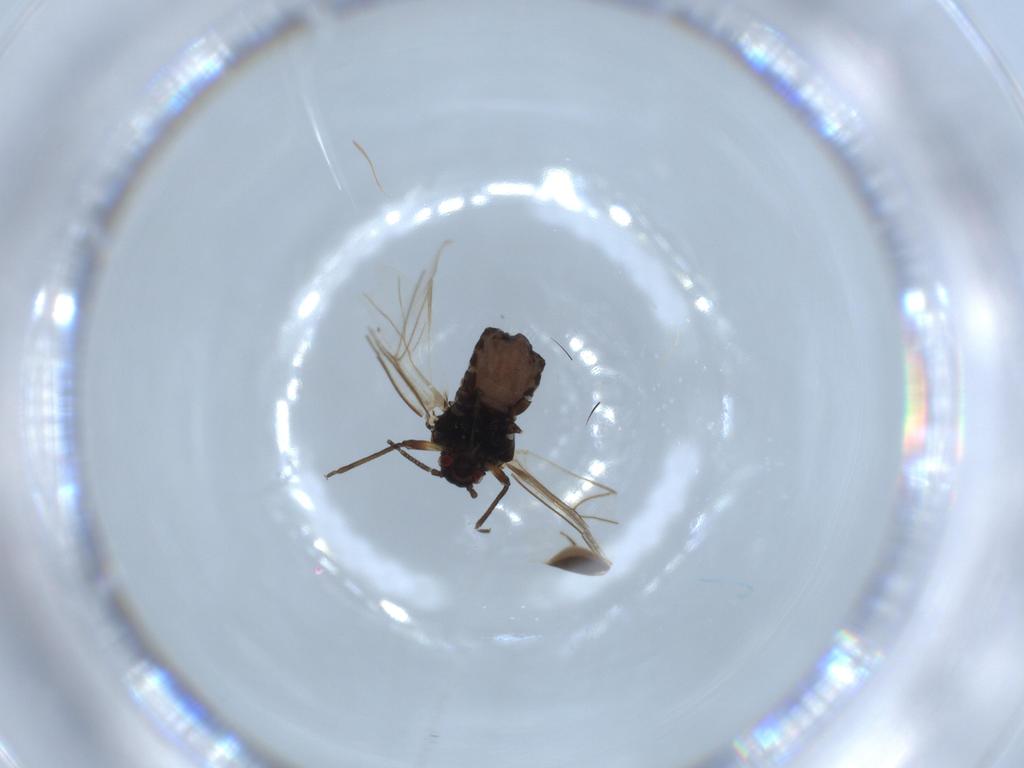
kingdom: Animalia
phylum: Arthropoda
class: Insecta
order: Hemiptera
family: Aphididae
